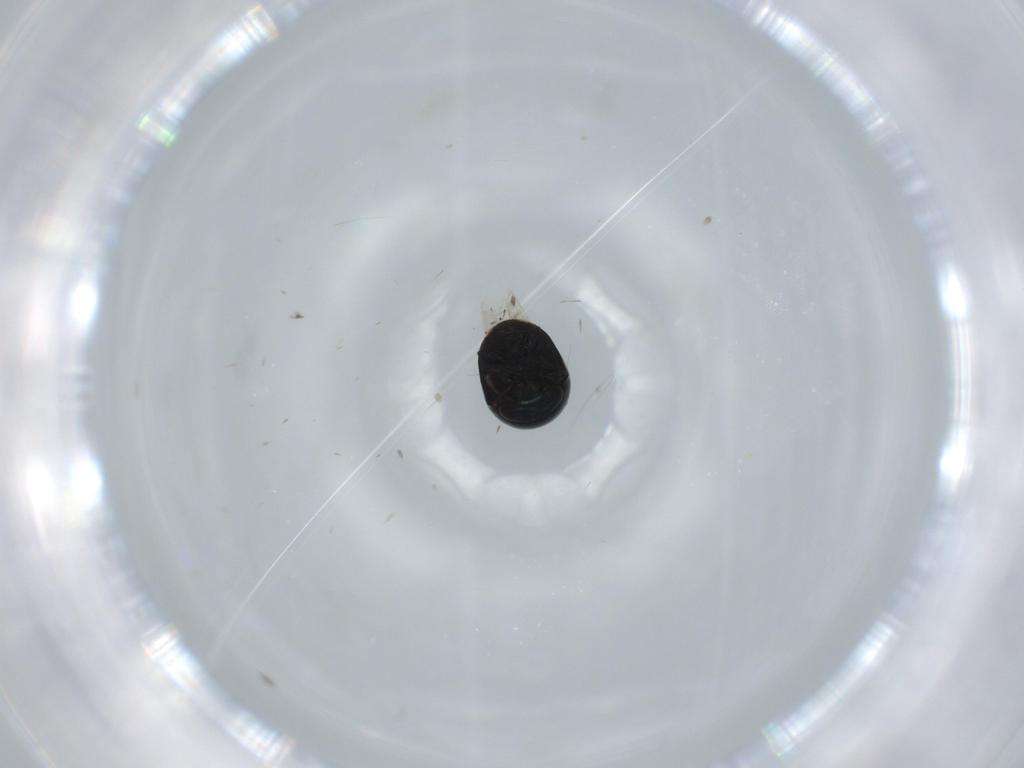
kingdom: Animalia
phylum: Arthropoda
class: Insecta
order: Coleoptera
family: Cybocephalidae
